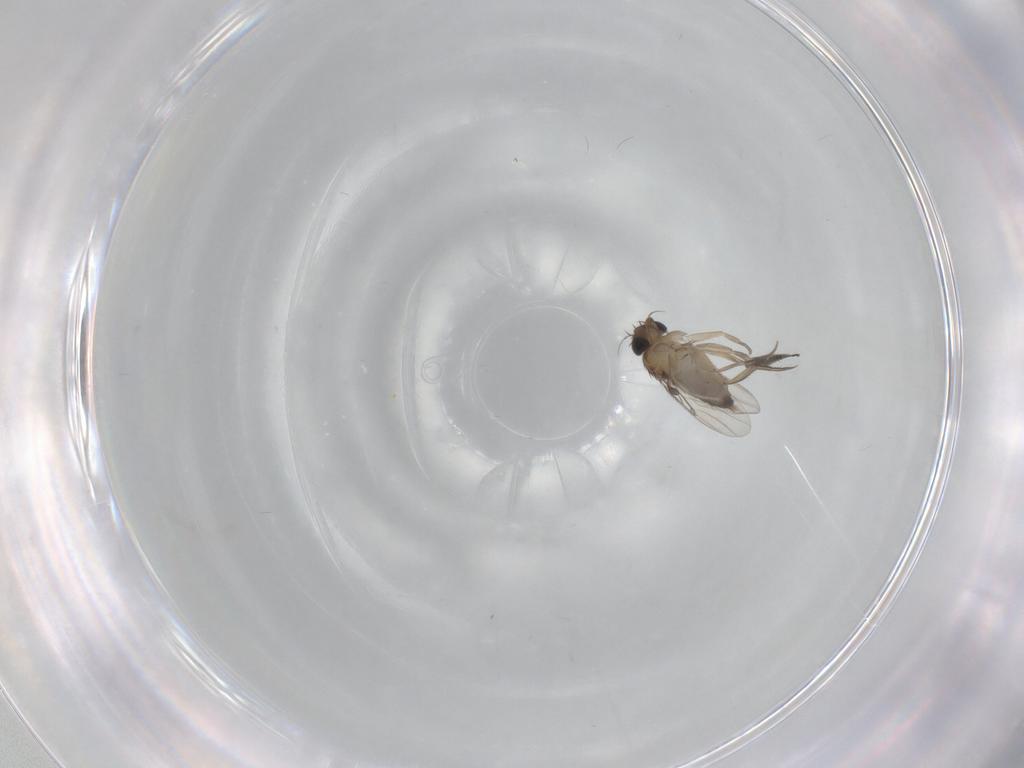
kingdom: Animalia
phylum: Arthropoda
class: Insecta
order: Diptera
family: Phoridae
